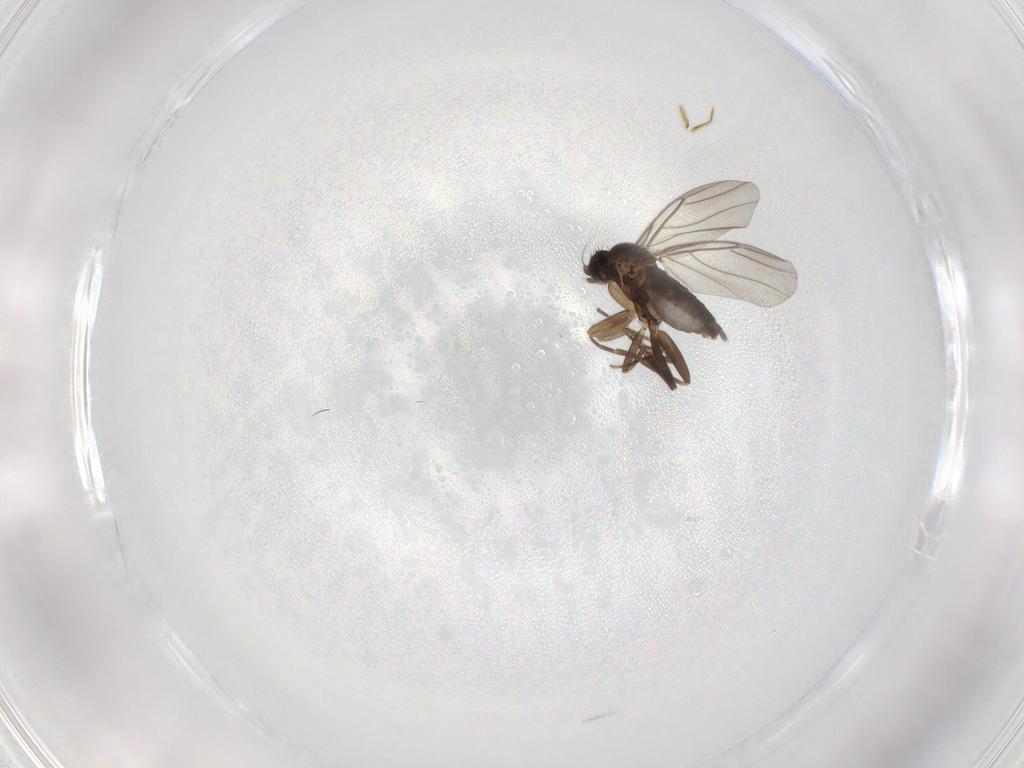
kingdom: Animalia
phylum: Arthropoda
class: Insecta
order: Diptera
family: Phoridae
